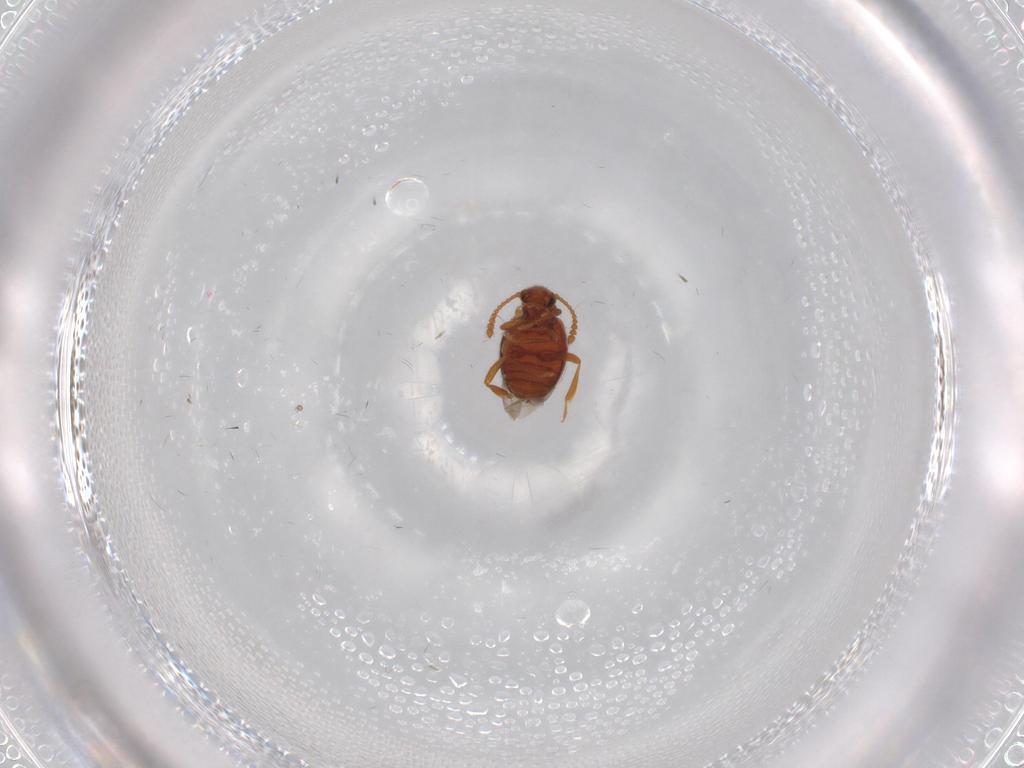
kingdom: Animalia
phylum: Arthropoda
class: Insecta
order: Coleoptera
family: Aderidae
